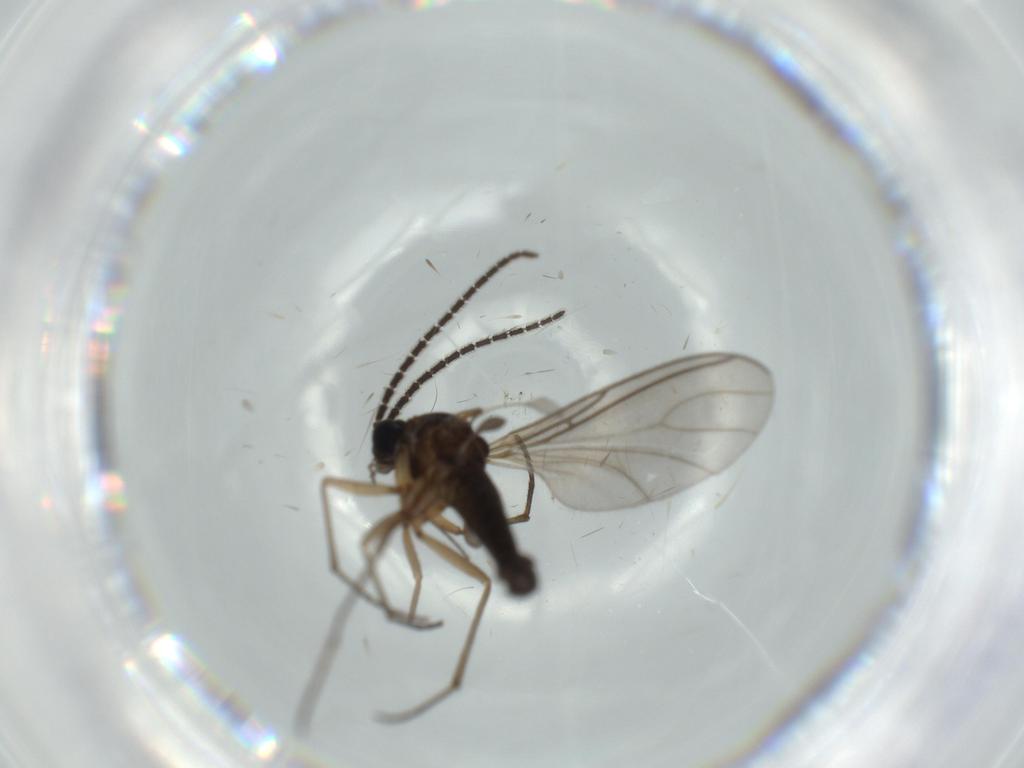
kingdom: Animalia
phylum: Arthropoda
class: Insecta
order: Diptera
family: Sciaridae
